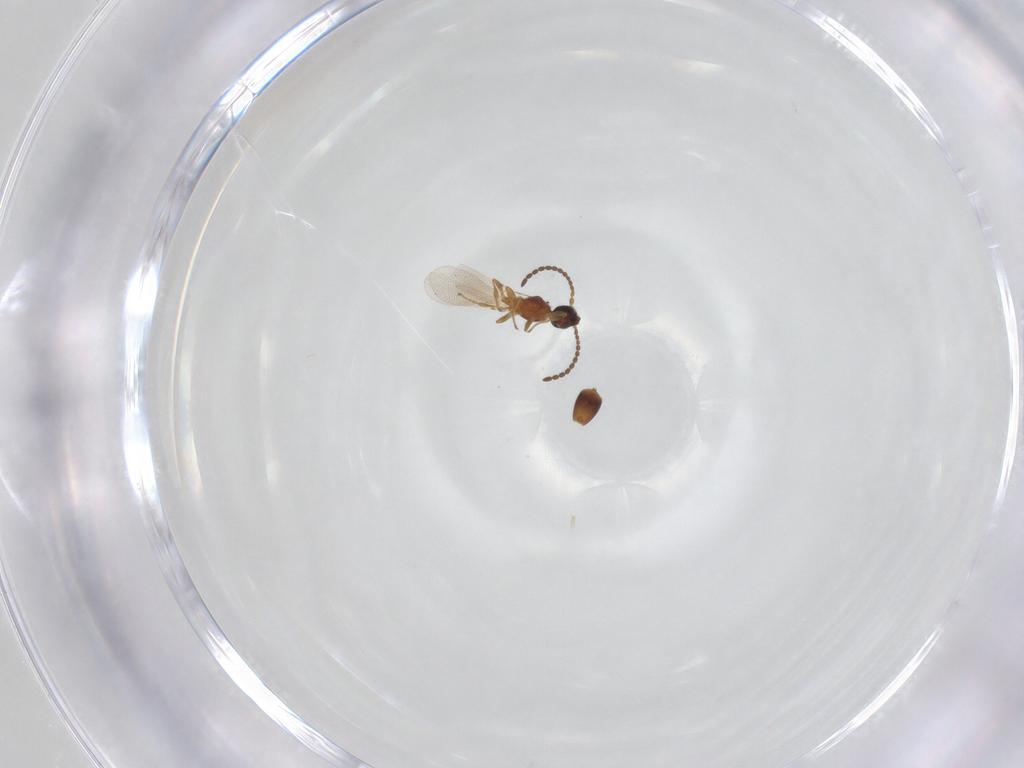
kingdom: Animalia
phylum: Arthropoda
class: Insecta
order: Hymenoptera
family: Diapriidae
